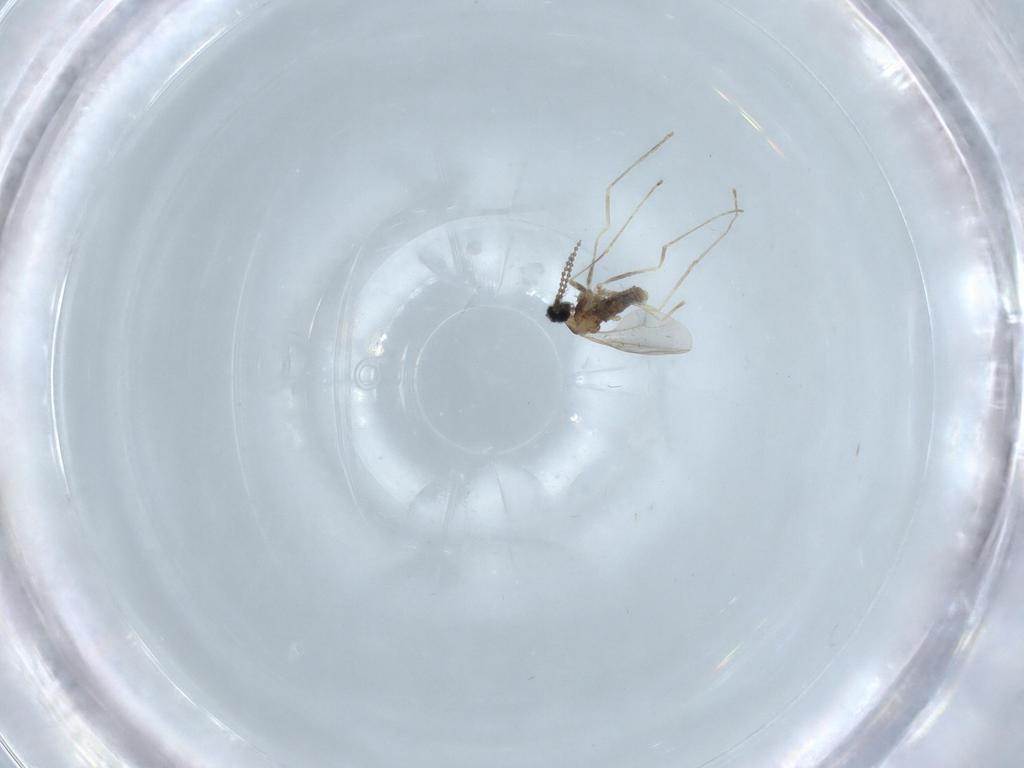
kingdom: Animalia
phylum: Arthropoda
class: Insecta
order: Diptera
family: Cecidomyiidae
